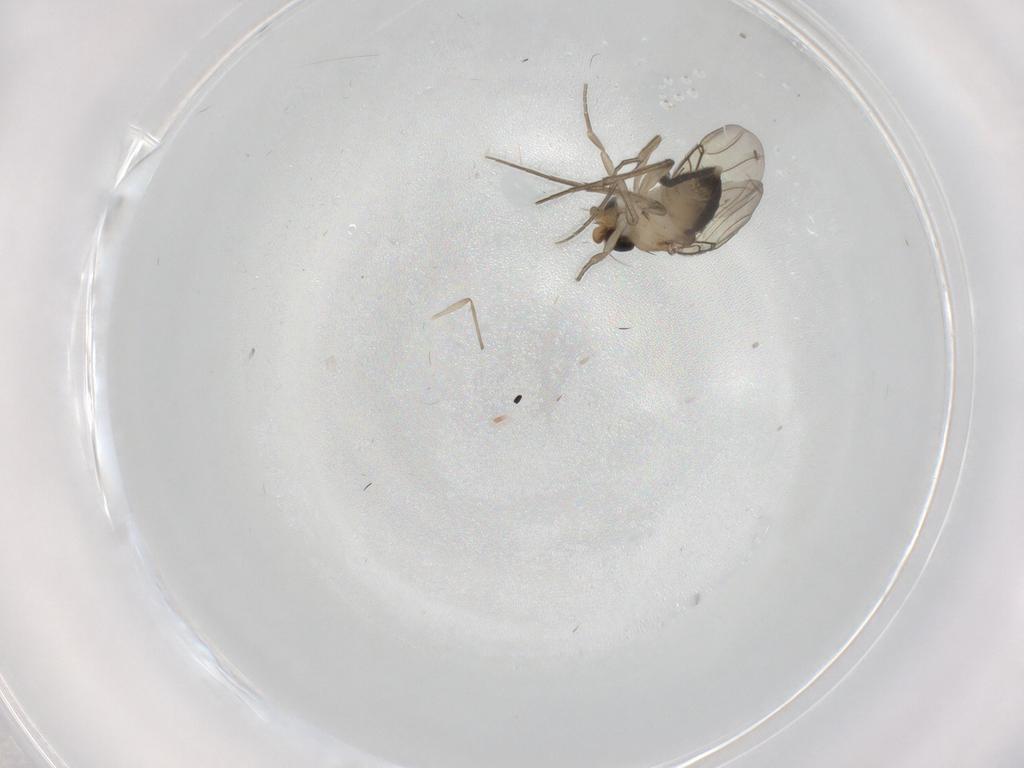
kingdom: Animalia
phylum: Arthropoda
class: Insecta
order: Diptera
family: Phoridae
